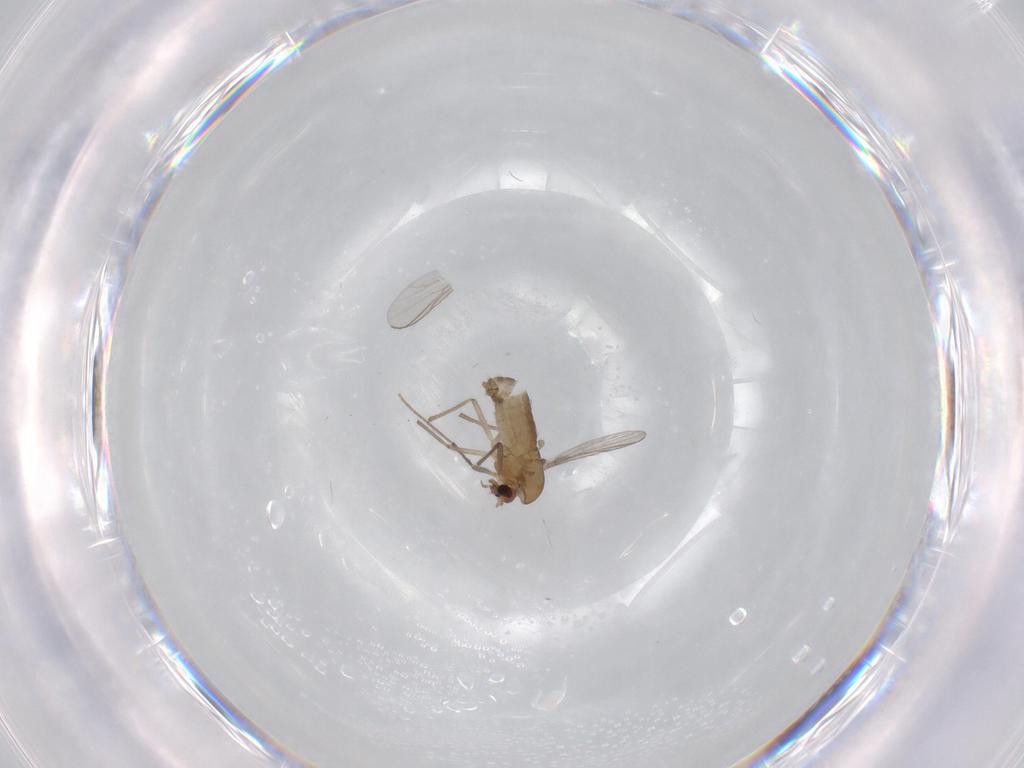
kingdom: Animalia
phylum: Arthropoda
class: Insecta
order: Diptera
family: Chironomidae
